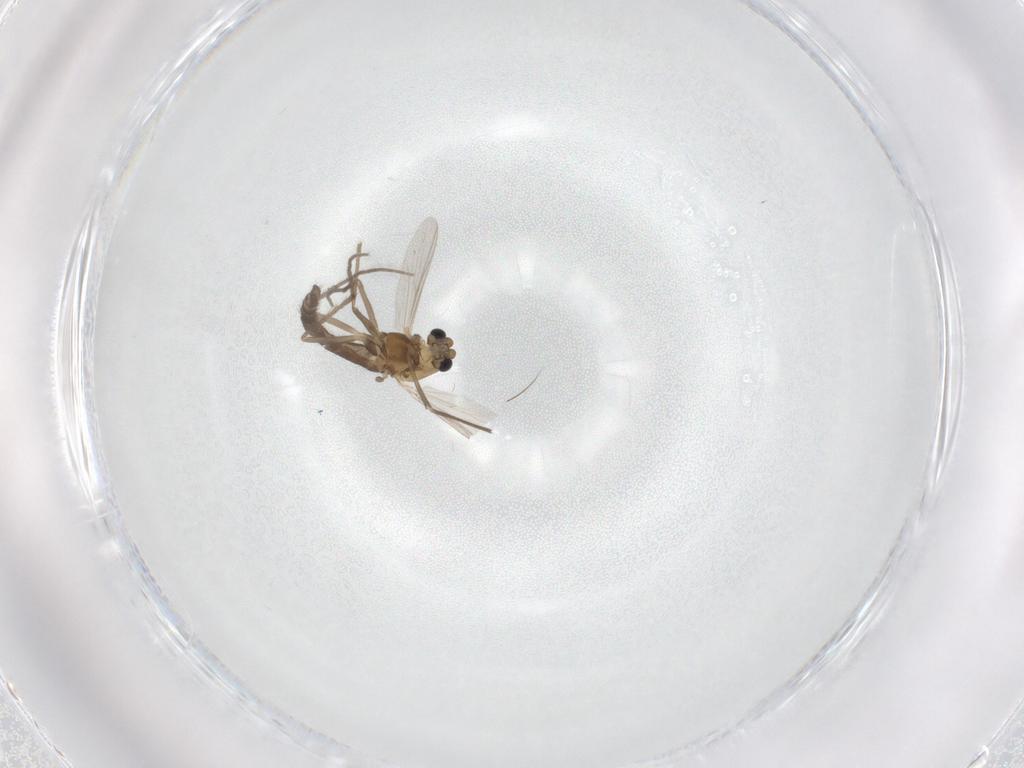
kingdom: Animalia
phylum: Arthropoda
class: Insecta
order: Diptera
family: Chironomidae
